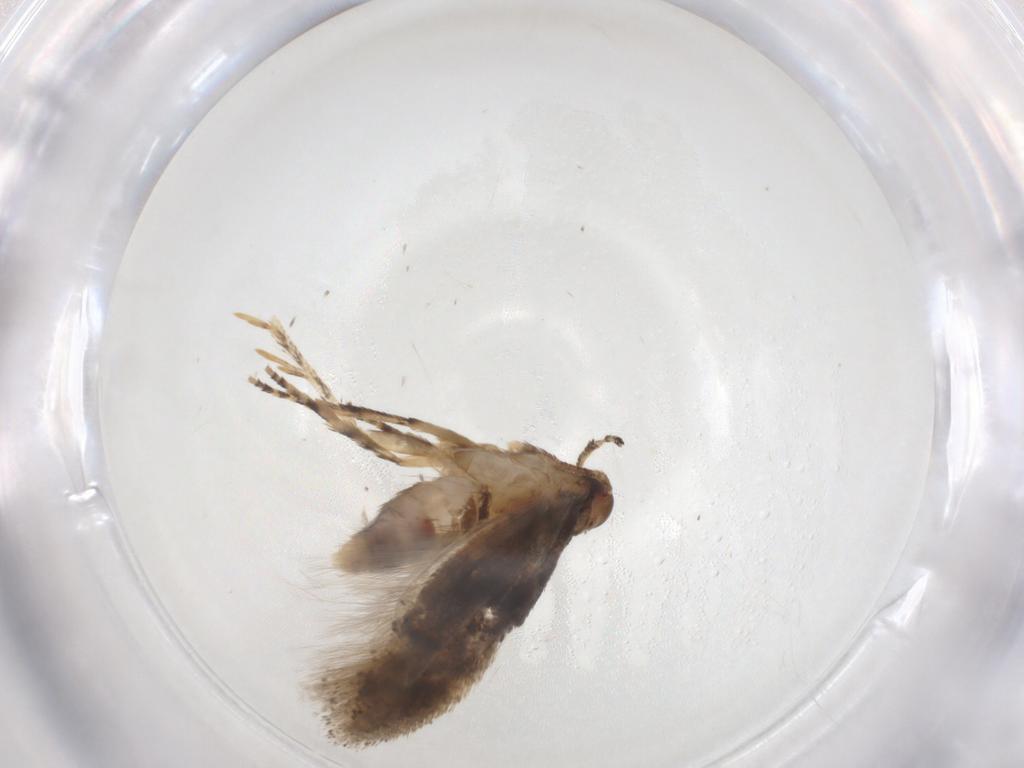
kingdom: Animalia
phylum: Arthropoda
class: Insecta
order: Lepidoptera
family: Gelechiidae
